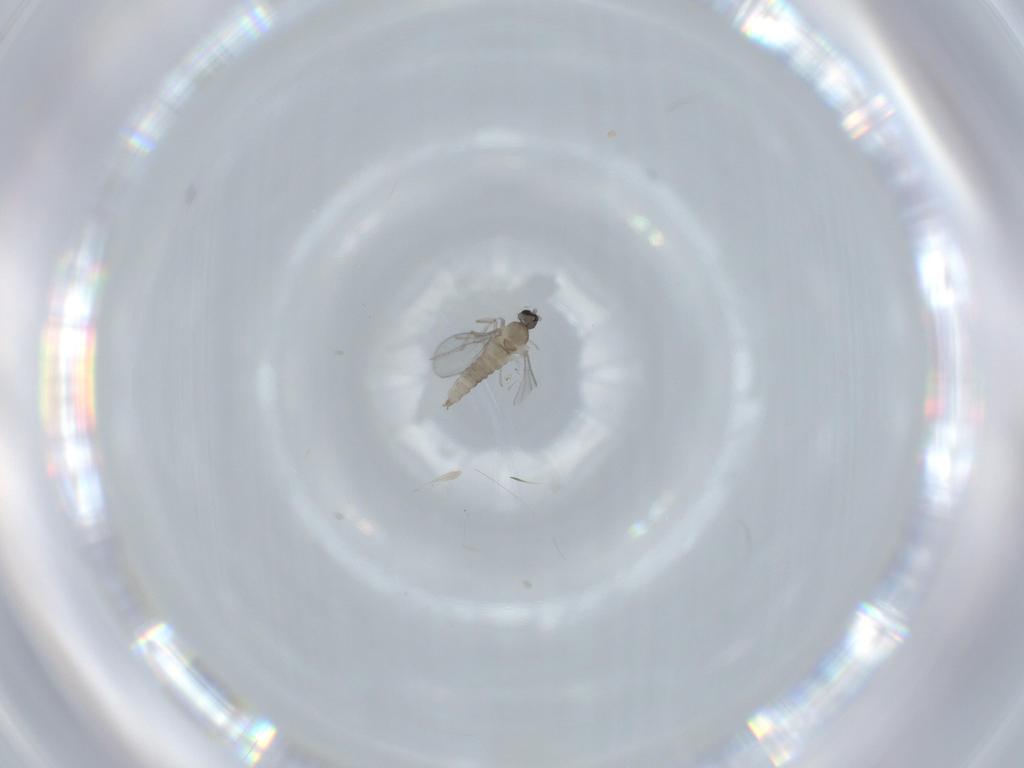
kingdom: Animalia
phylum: Arthropoda
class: Insecta
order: Diptera
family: Cecidomyiidae
